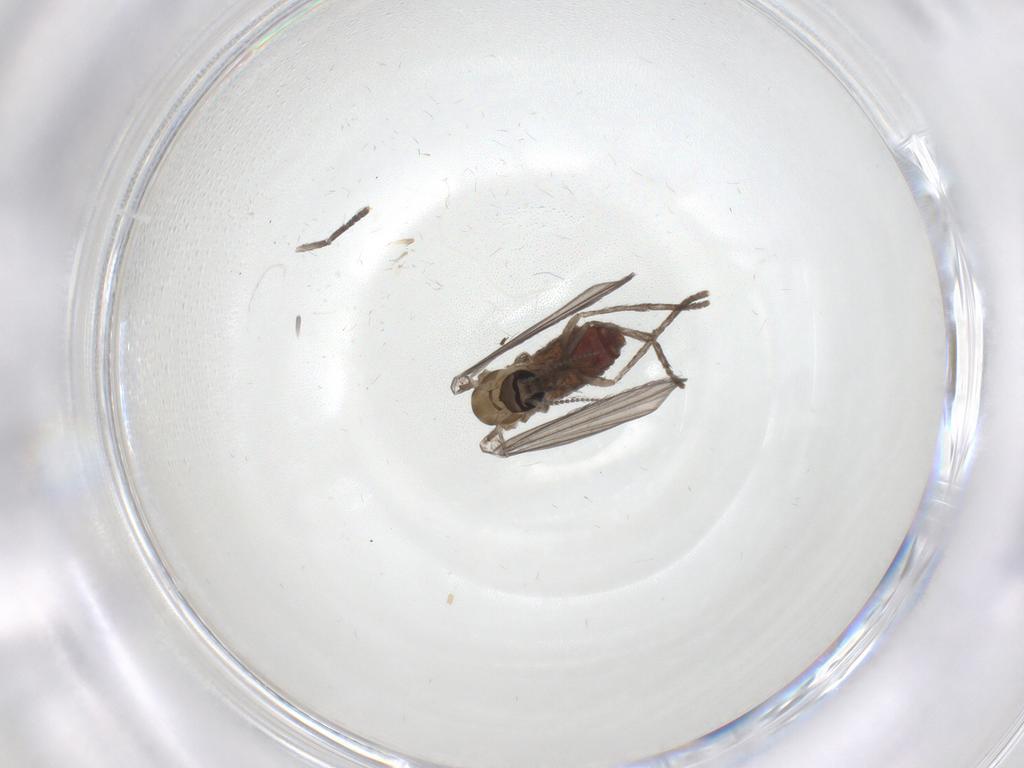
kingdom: Animalia
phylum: Arthropoda
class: Insecta
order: Diptera
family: Psychodidae
